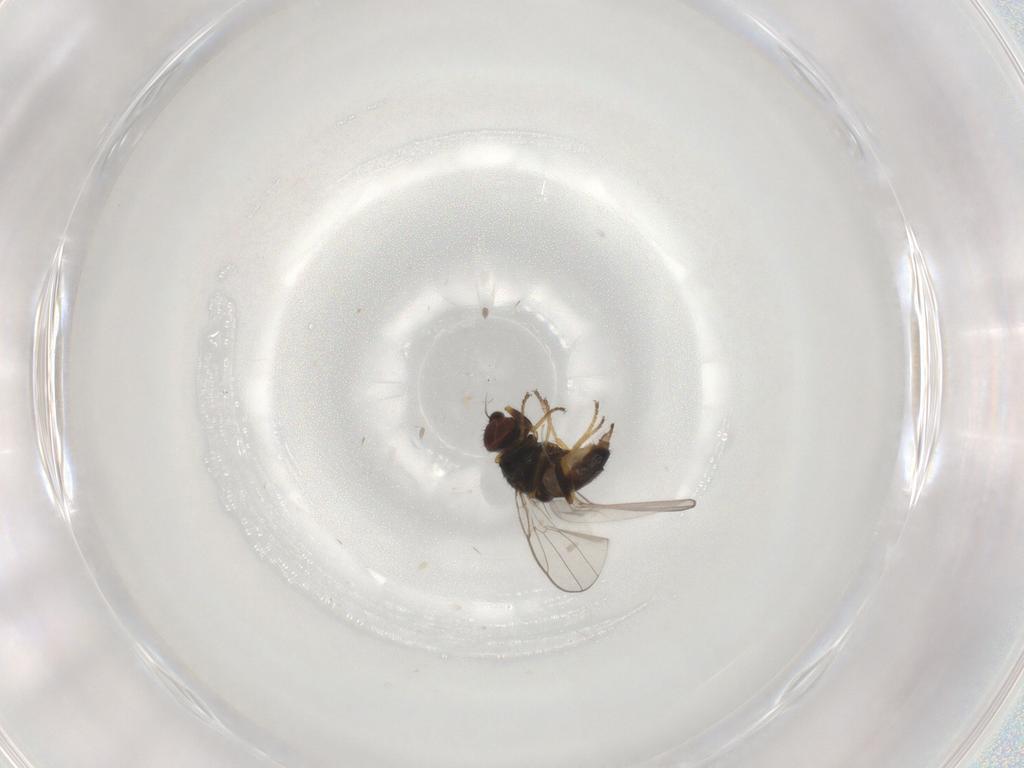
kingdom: Animalia
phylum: Arthropoda
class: Insecta
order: Diptera
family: Chloropidae
